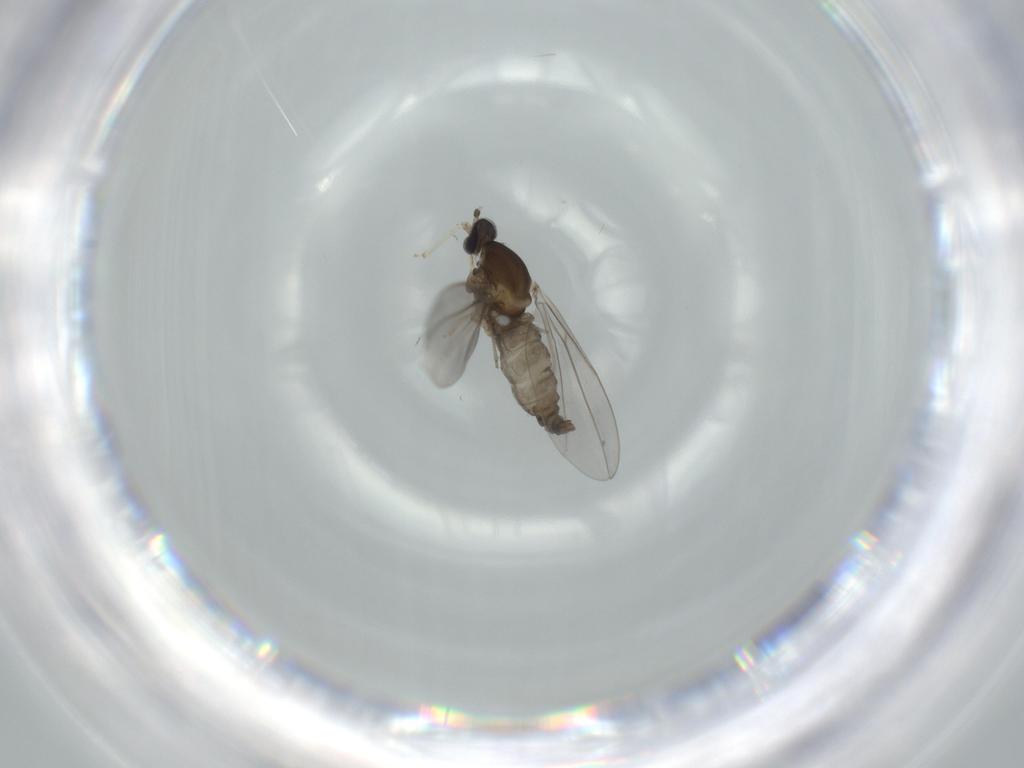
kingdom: Animalia
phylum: Arthropoda
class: Insecta
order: Diptera
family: Cecidomyiidae
